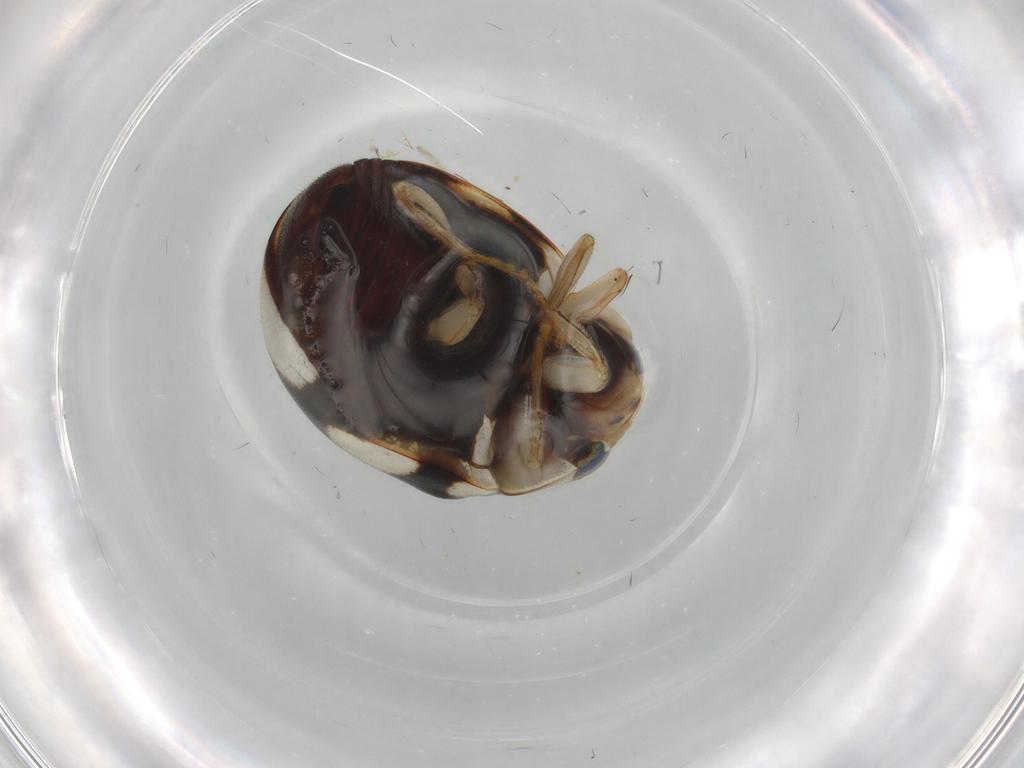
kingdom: Animalia
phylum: Arthropoda
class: Insecta
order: Coleoptera
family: Coccinellidae
